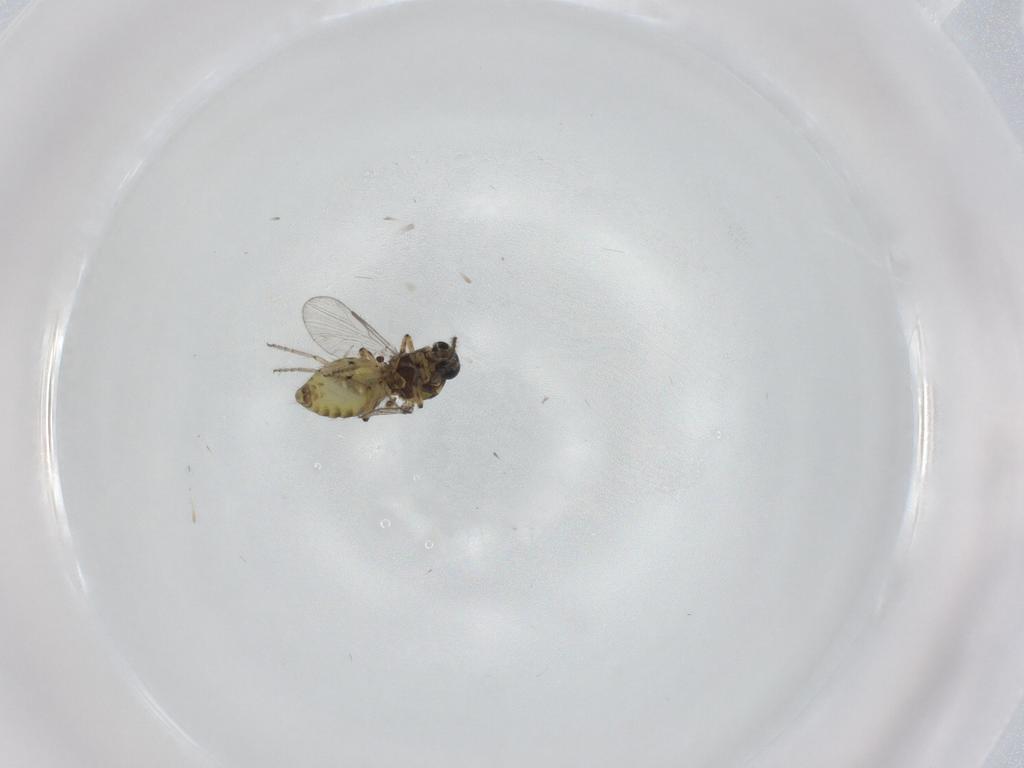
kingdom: Animalia
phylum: Arthropoda
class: Insecta
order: Diptera
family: Ceratopogonidae
